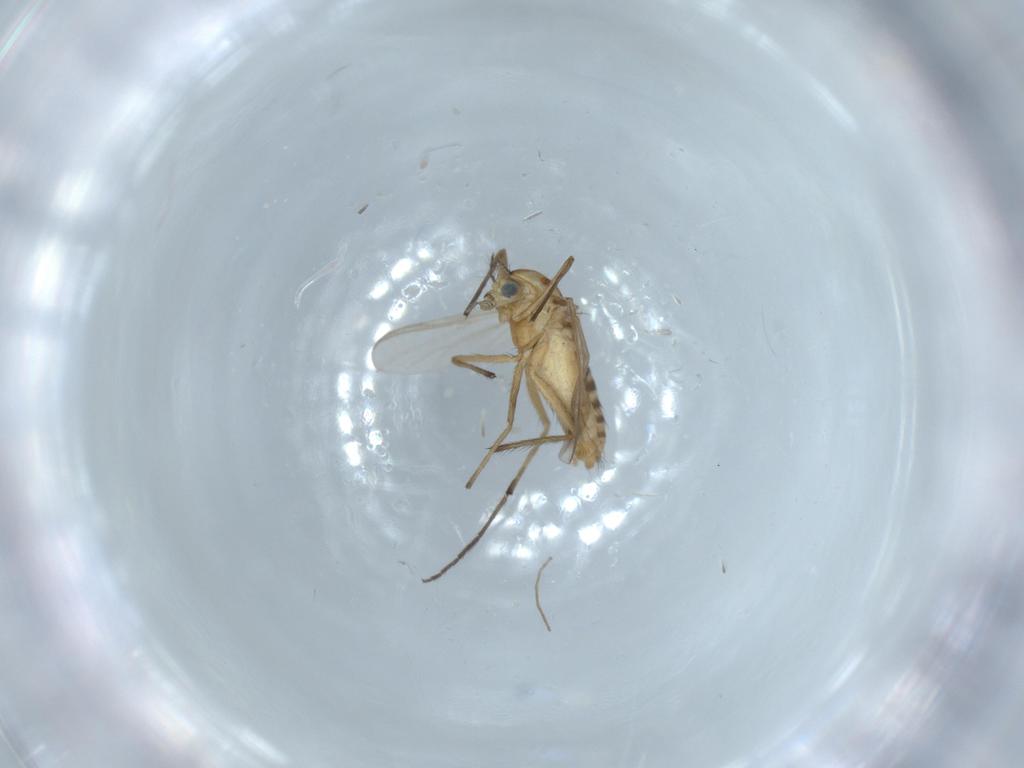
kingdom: Animalia
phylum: Arthropoda
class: Insecta
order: Diptera
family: Chironomidae
